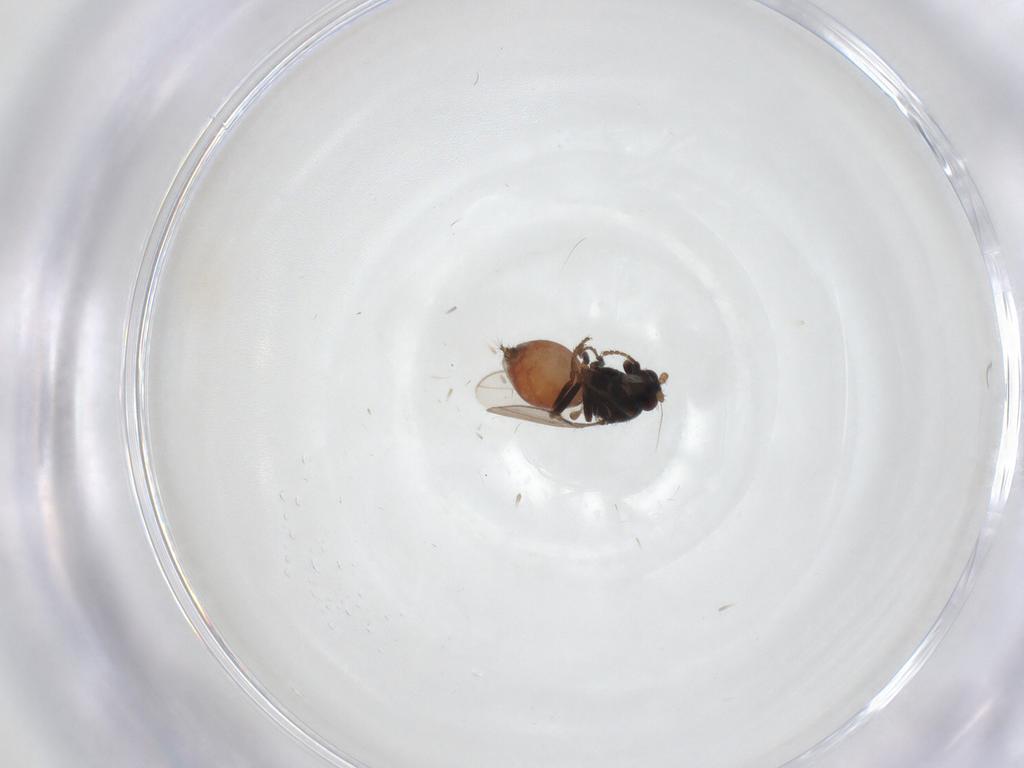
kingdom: Animalia
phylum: Arthropoda
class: Insecta
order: Diptera
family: Sphaeroceridae
